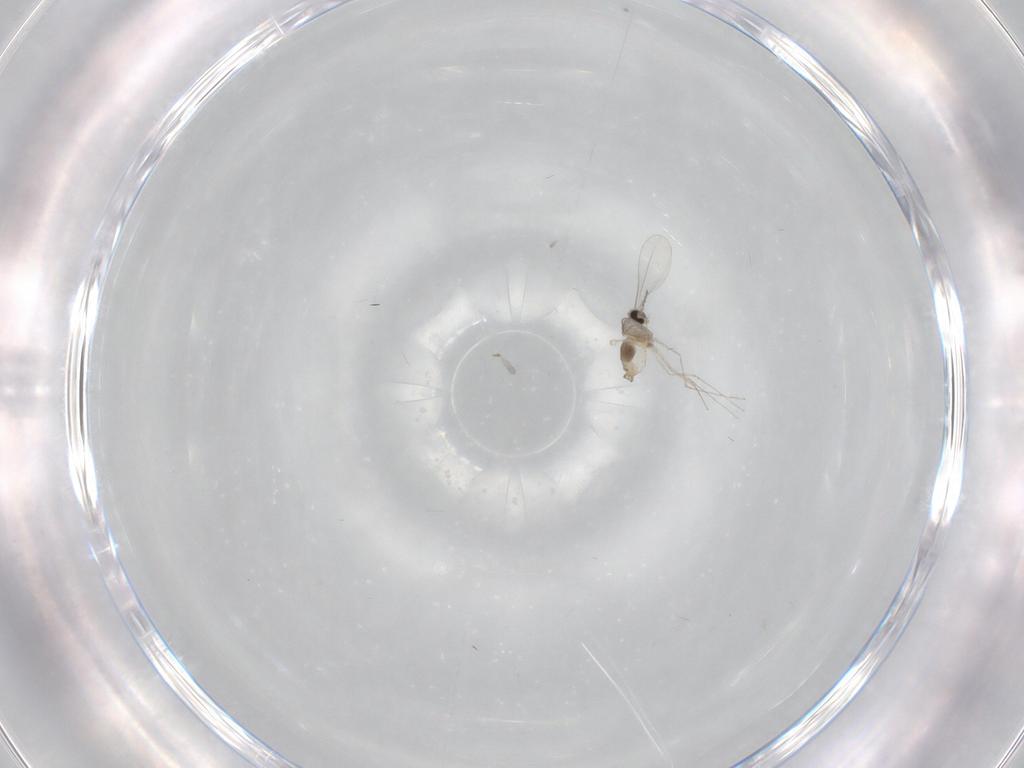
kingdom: Animalia
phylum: Arthropoda
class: Insecta
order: Diptera
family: Cecidomyiidae
